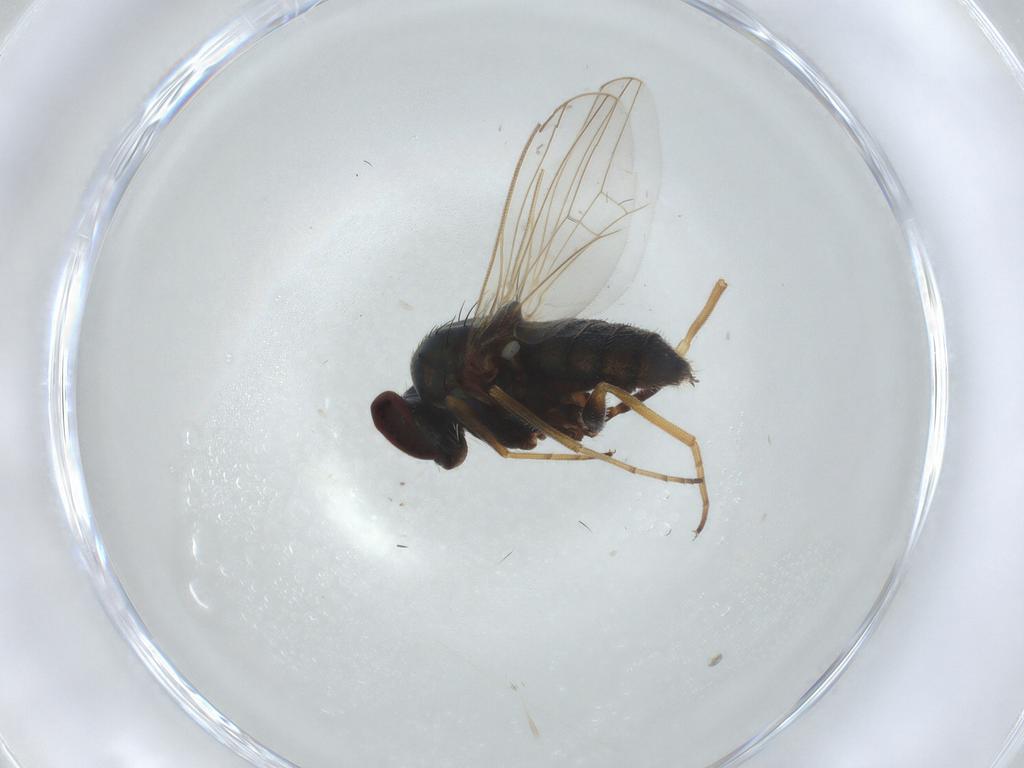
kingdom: Animalia
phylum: Arthropoda
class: Insecta
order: Diptera
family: Dolichopodidae
